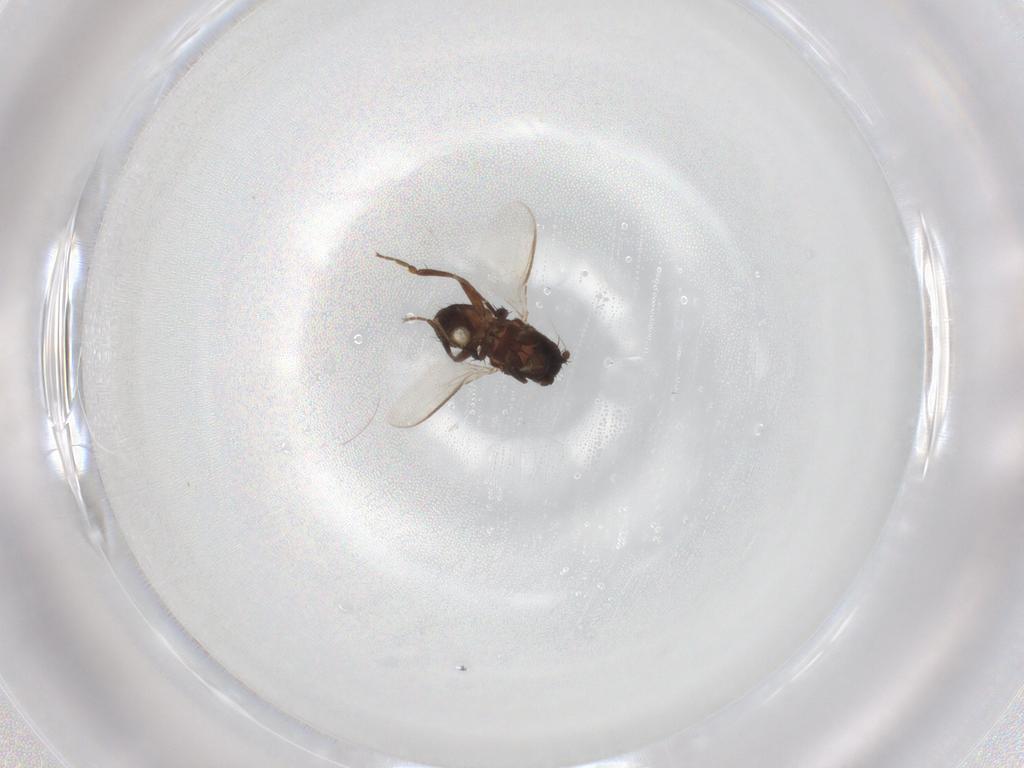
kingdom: Animalia
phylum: Arthropoda
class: Insecta
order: Diptera
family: Sphaeroceridae
